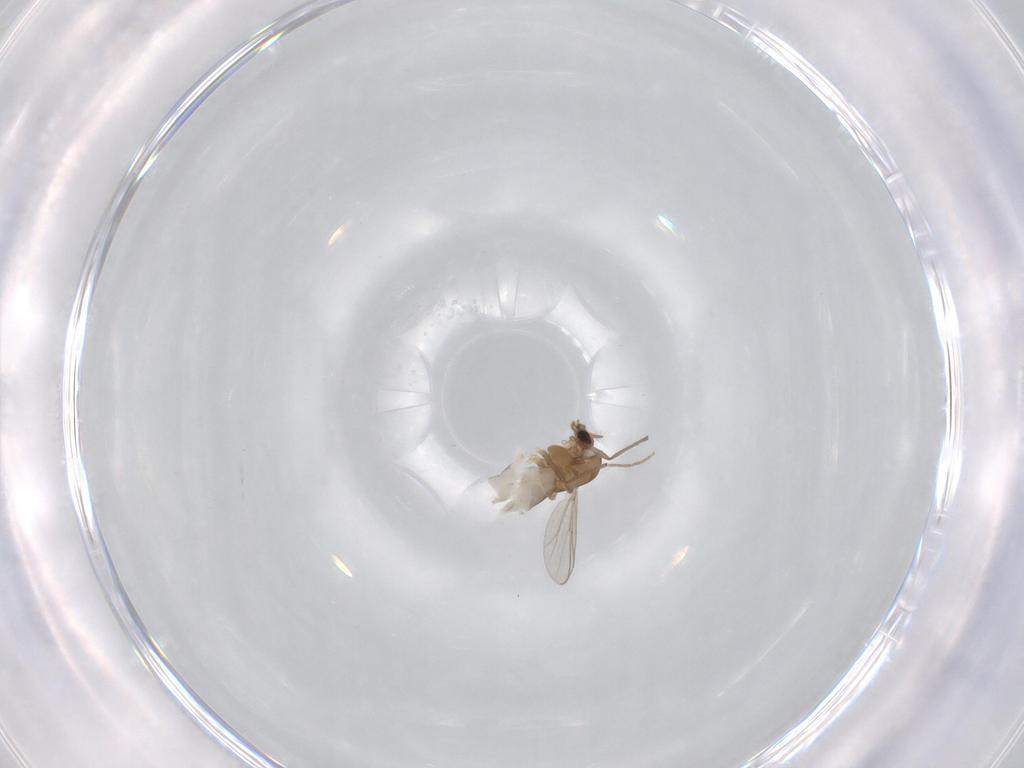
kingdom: Animalia
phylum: Arthropoda
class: Insecta
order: Diptera
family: Chironomidae
